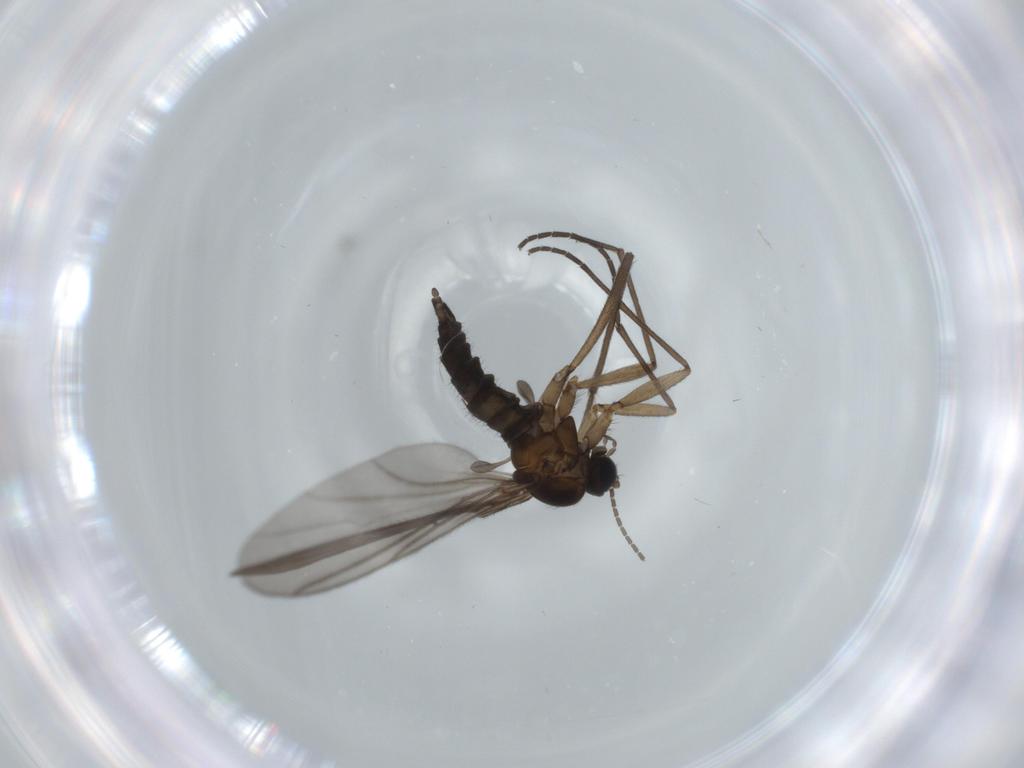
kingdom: Animalia
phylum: Arthropoda
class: Insecta
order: Diptera
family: Sciaridae
